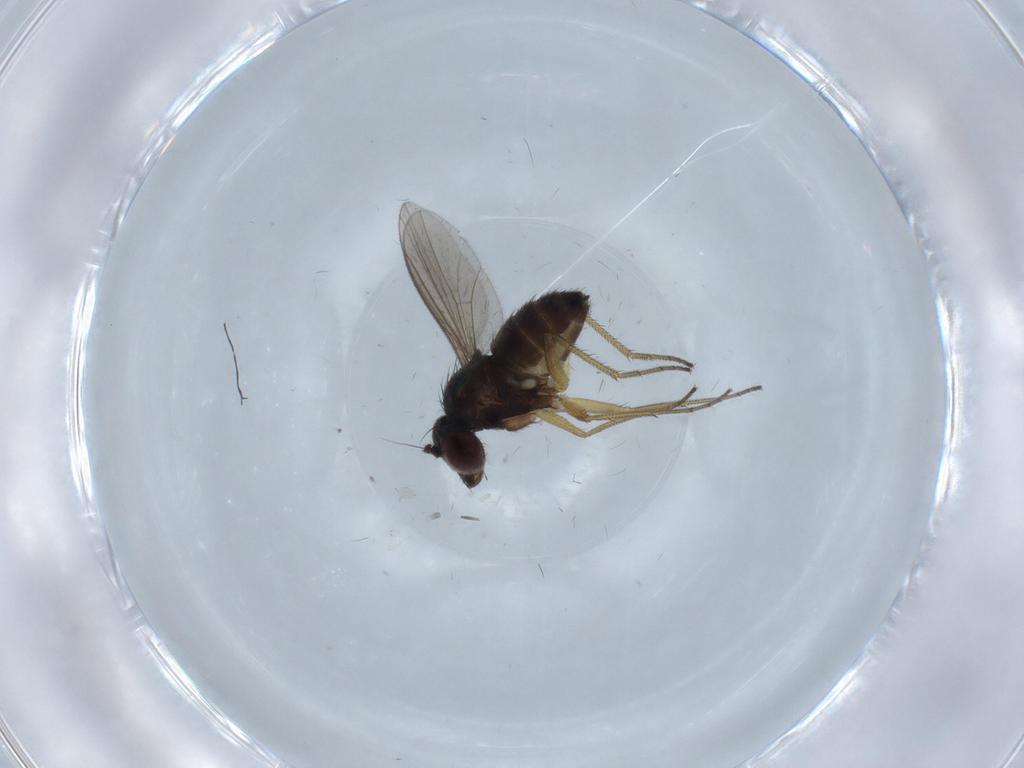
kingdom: Animalia
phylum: Arthropoda
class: Insecta
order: Diptera
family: Dolichopodidae
